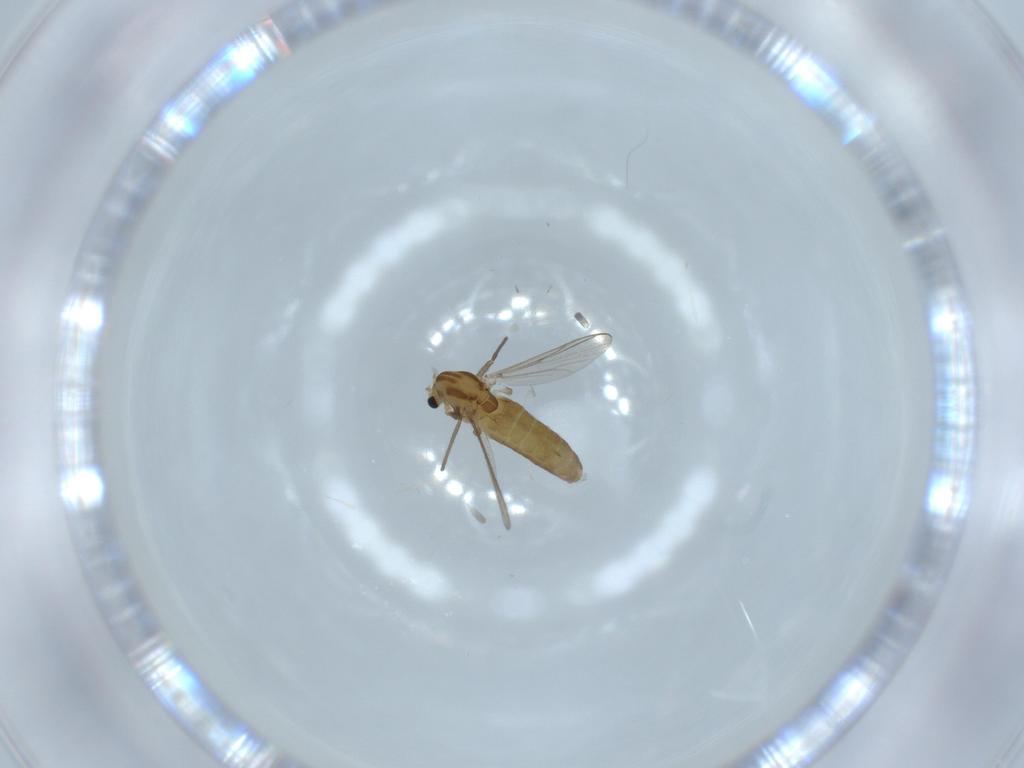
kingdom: Animalia
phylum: Arthropoda
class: Insecta
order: Diptera
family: Chironomidae
